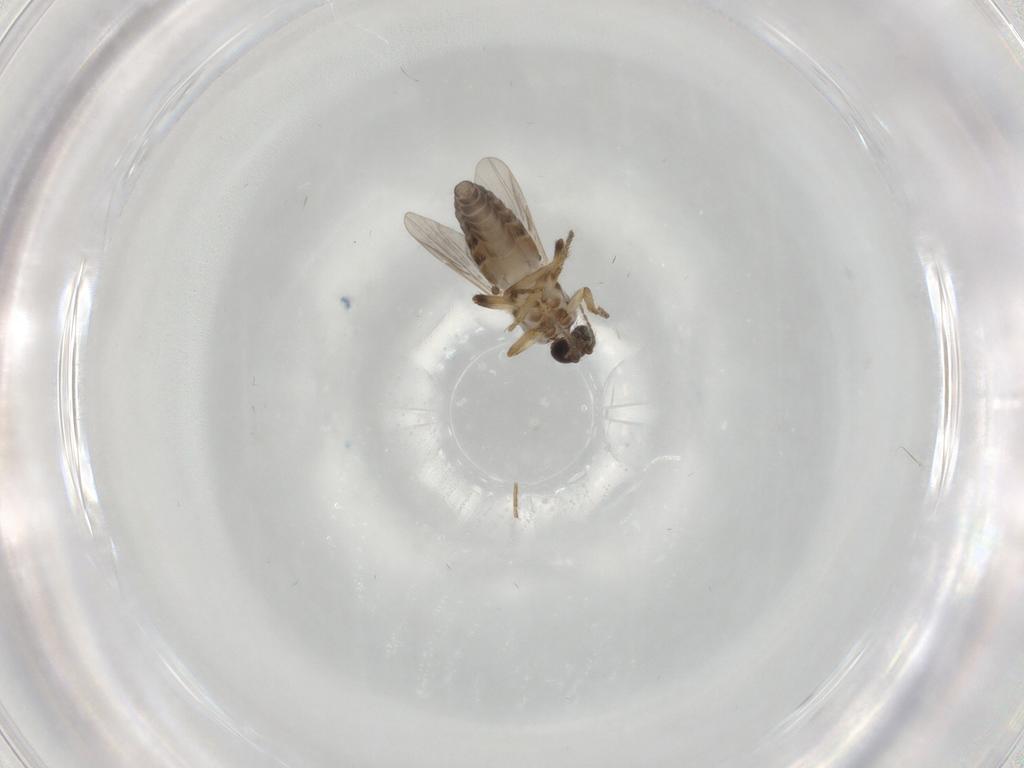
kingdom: Animalia
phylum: Arthropoda
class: Insecta
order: Diptera
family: Ceratopogonidae
